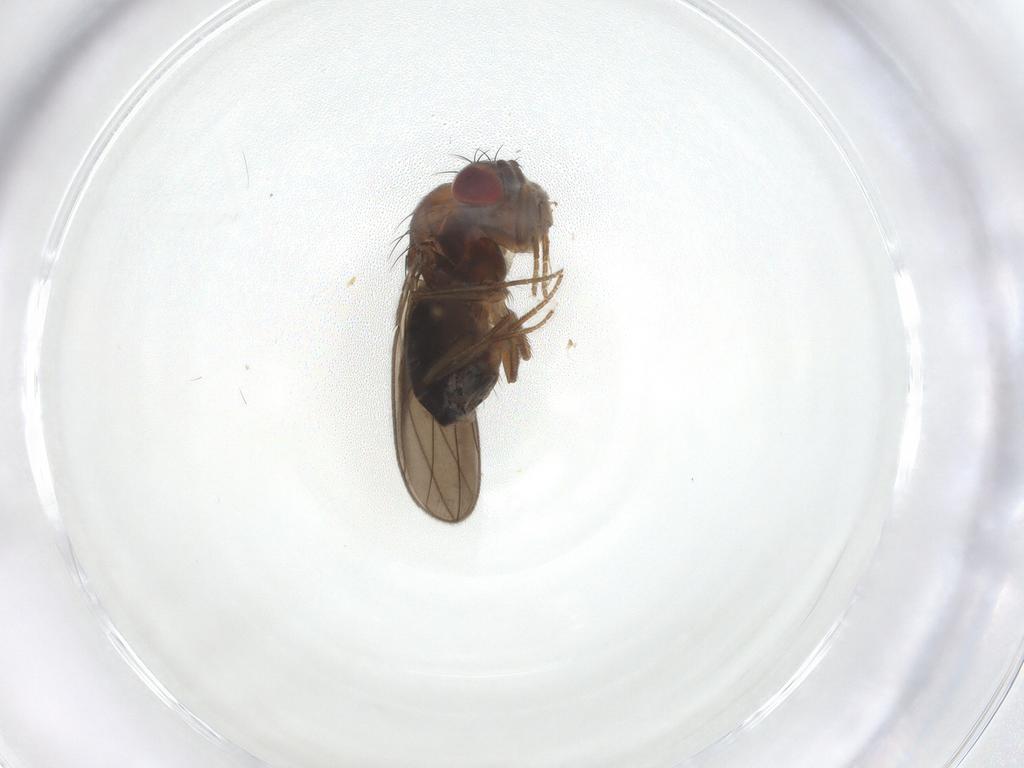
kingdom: Animalia
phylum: Arthropoda
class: Insecta
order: Diptera
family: Drosophilidae
